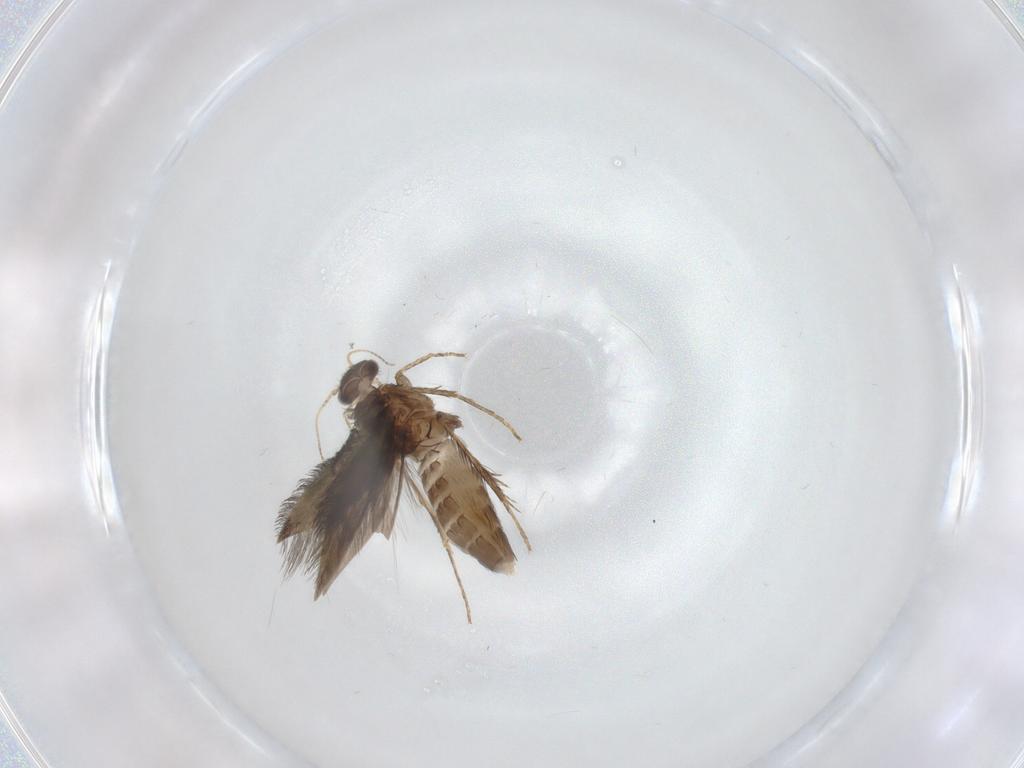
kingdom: Animalia
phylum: Arthropoda
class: Insecta
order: Trichoptera
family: Hydroptilidae
